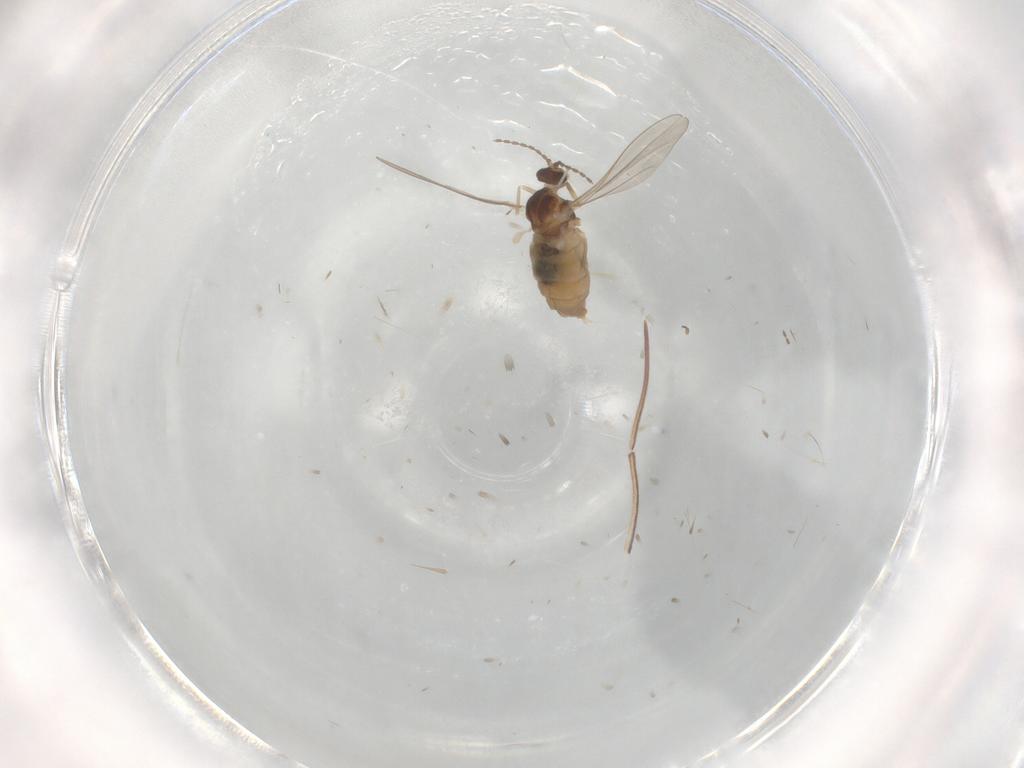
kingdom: Animalia
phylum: Arthropoda
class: Insecta
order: Diptera
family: Cecidomyiidae
